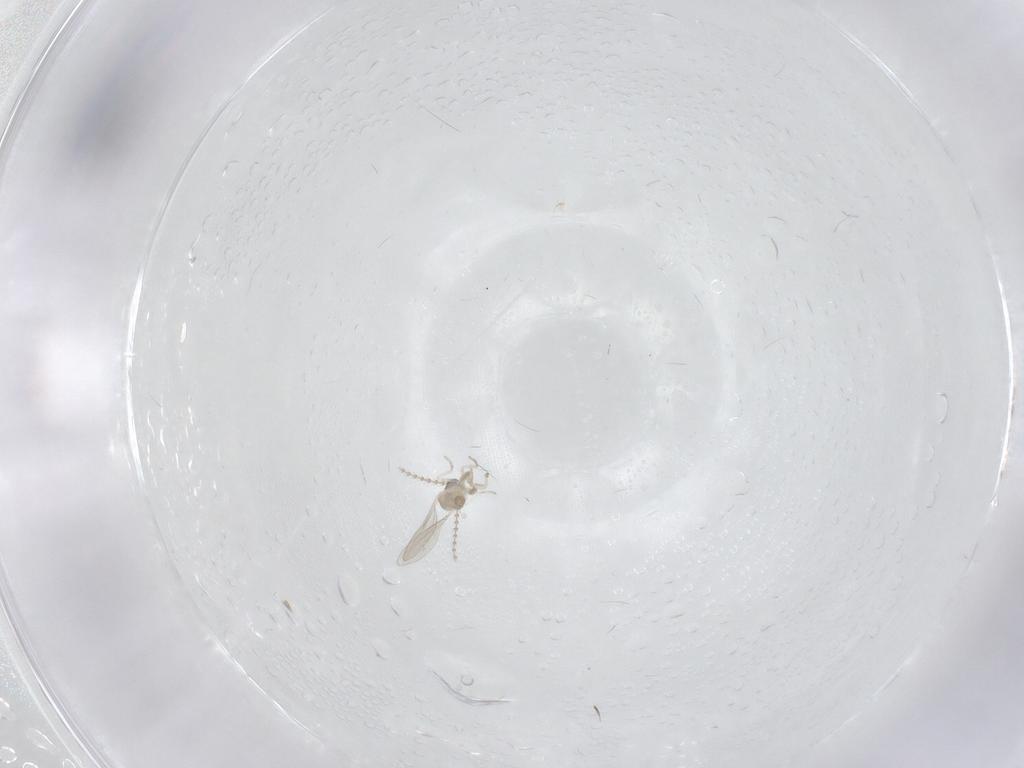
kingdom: Animalia
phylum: Arthropoda
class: Insecta
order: Diptera
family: Cecidomyiidae
